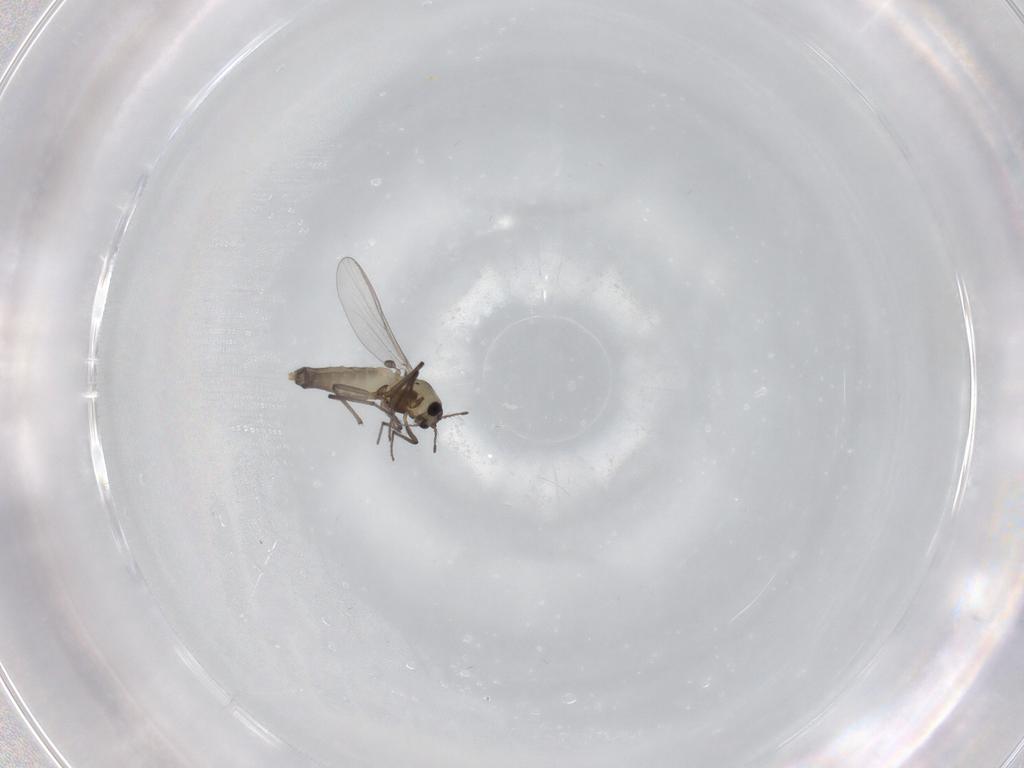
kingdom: Animalia
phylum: Arthropoda
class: Insecta
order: Diptera
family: Chironomidae
